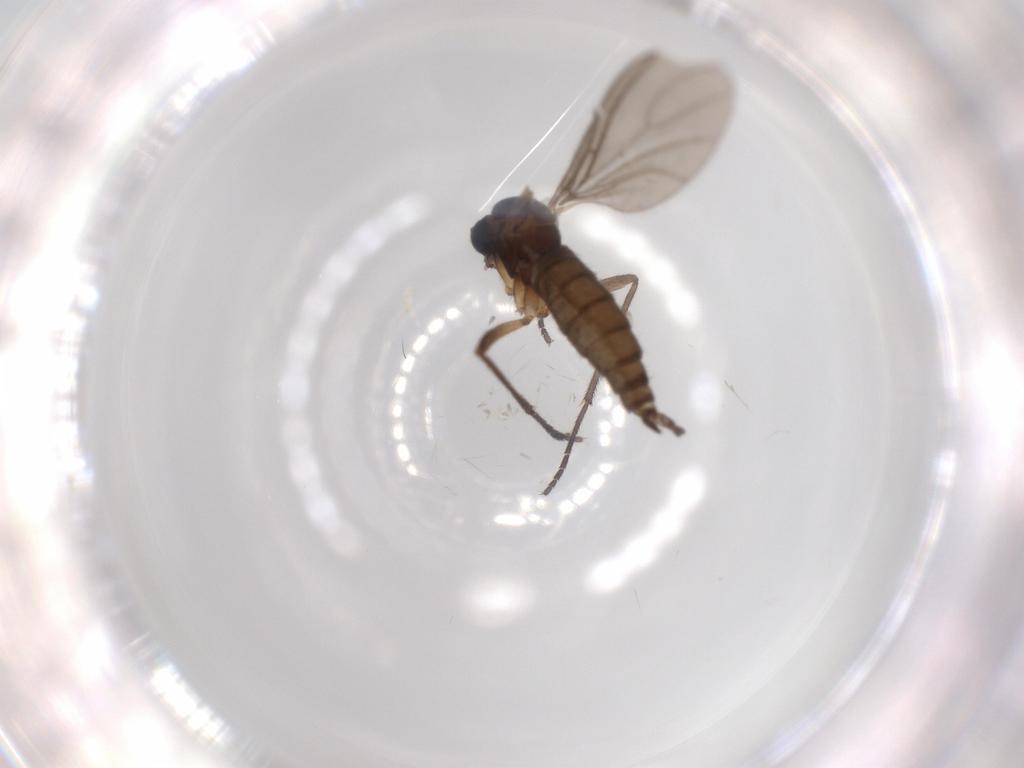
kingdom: Animalia
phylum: Arthropoda
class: Insecta
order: Diptera
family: Sciaridae
